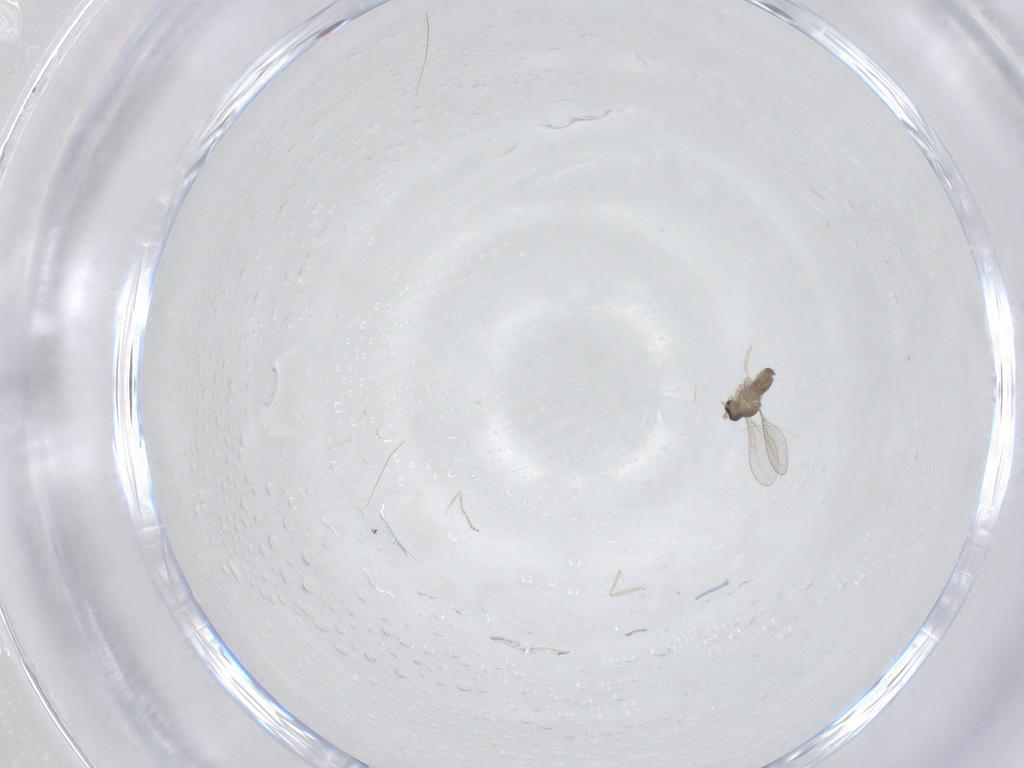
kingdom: Animalia
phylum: Arthropoda
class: Insecta
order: Diptera
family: Cecidomyiidae
